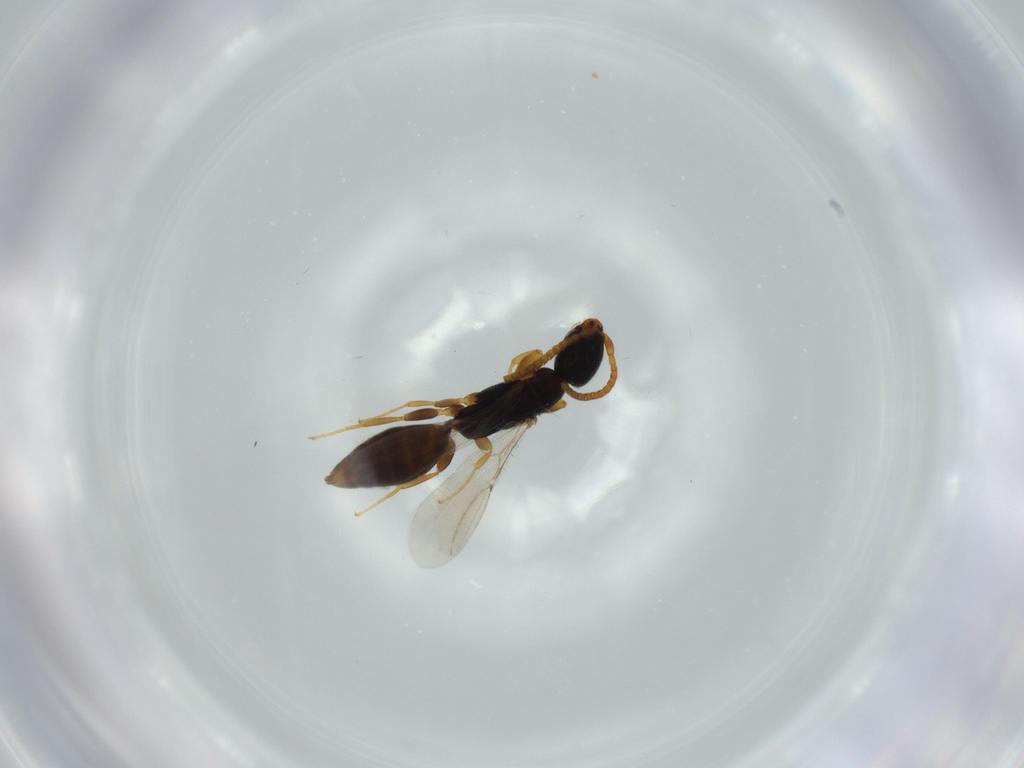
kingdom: Animalia
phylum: Arthropoda
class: Insecta
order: Hymenoptera
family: Bethylidae
